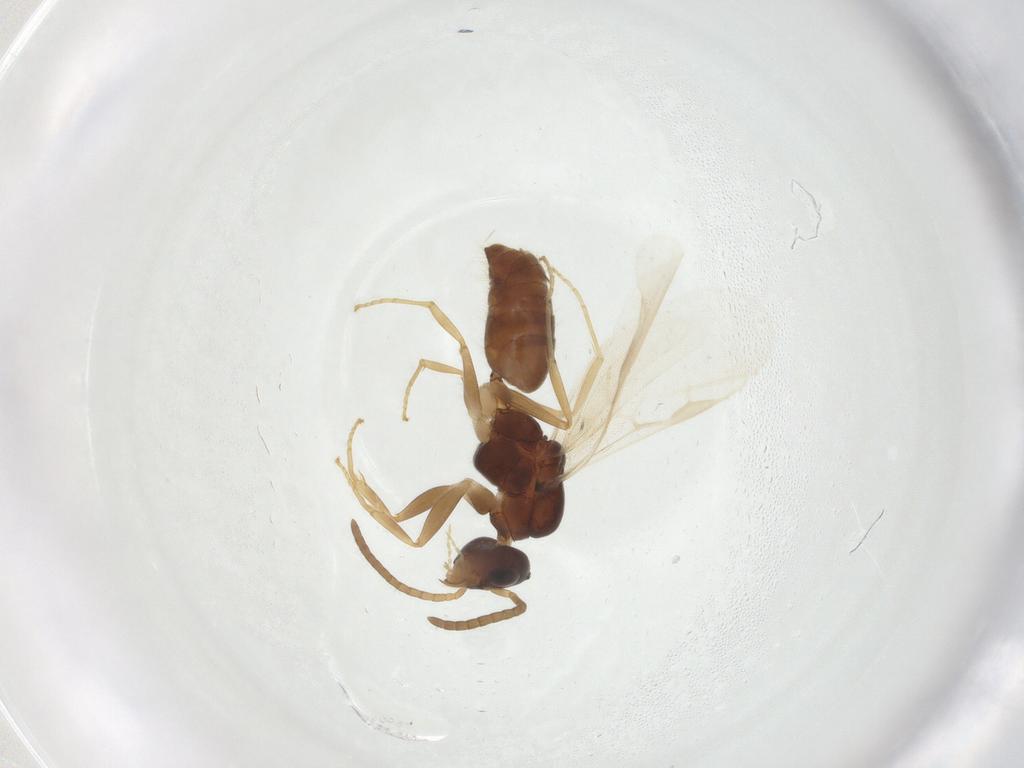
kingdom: Animalia
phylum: Arthropoda
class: Insecta
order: Hymenoptera
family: Formicidae
